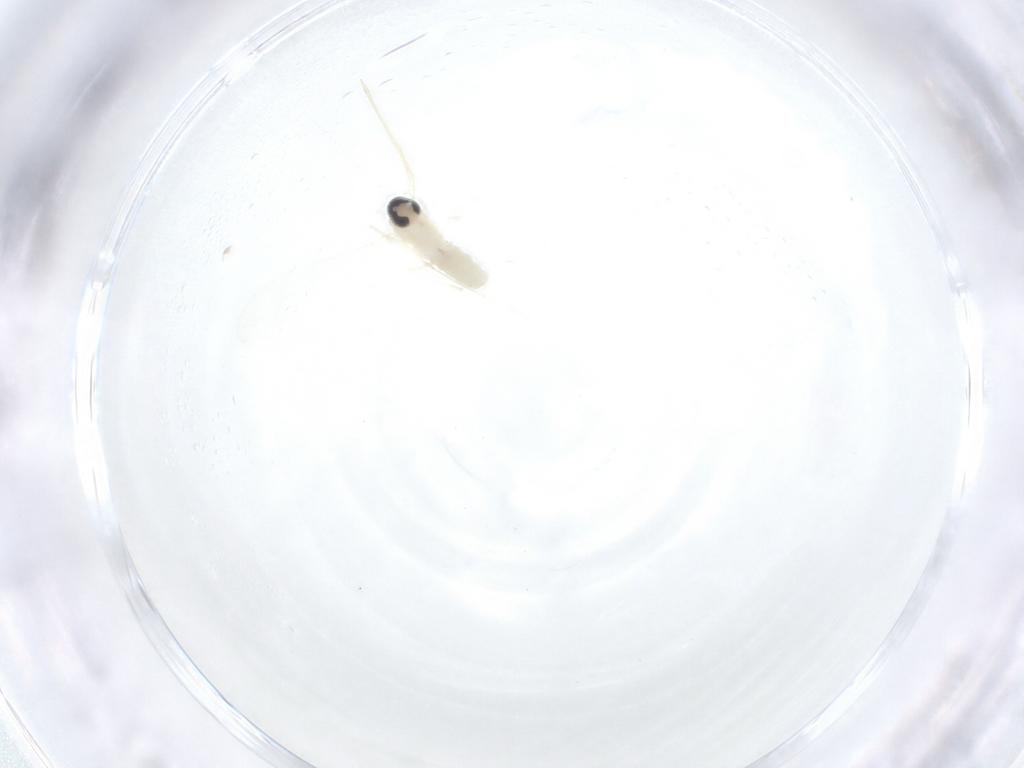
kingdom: Animalia
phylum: Arthropoda
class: Insecta
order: Diptera
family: Cecidomyiidae
